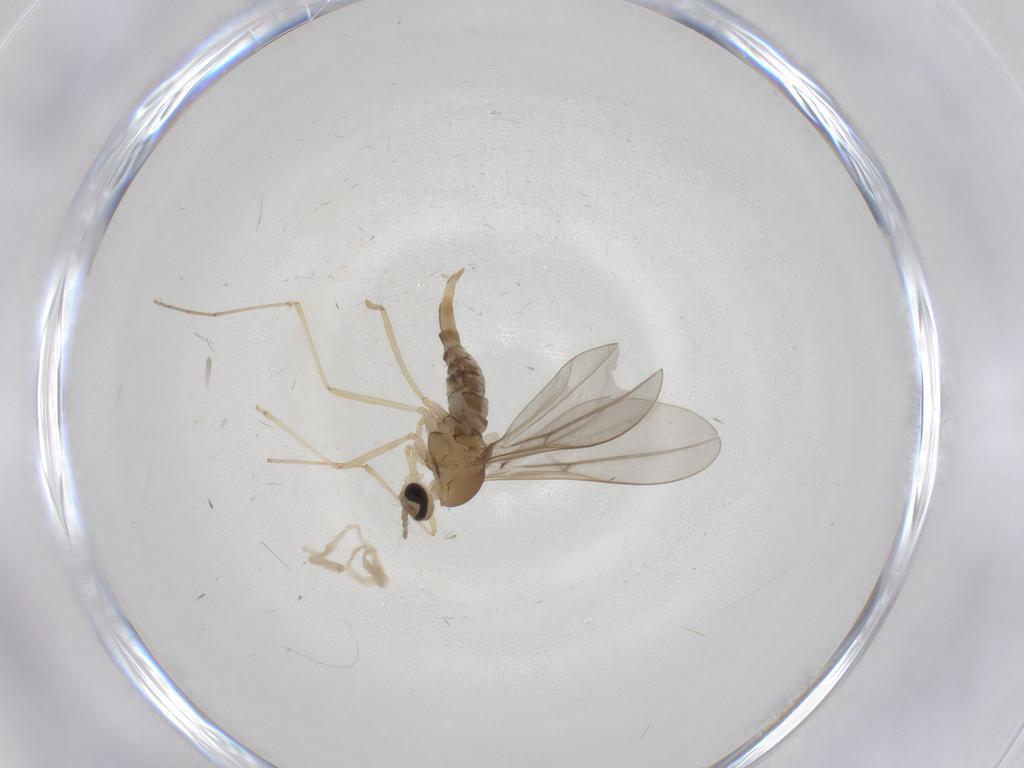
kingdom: Animalia
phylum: Arthropoda
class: Insecta
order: Diptera
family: Cecidomyiidae
